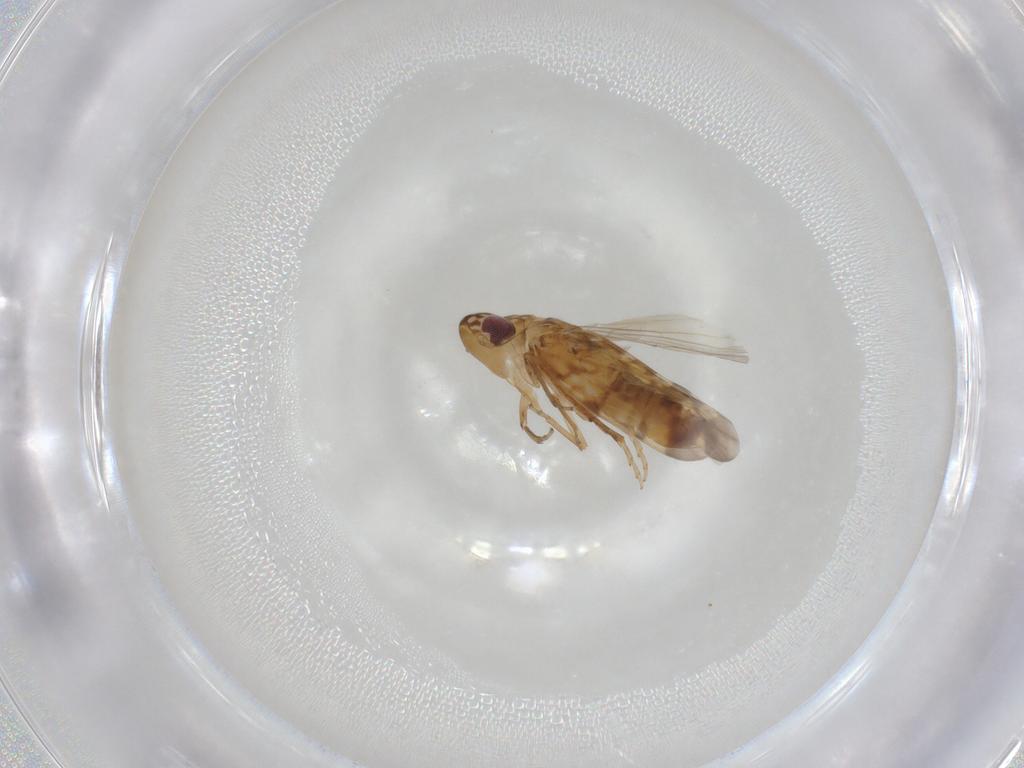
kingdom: Animalia
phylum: Arthropoda
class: Insecta
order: Hemiptera
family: Cicadellidae
